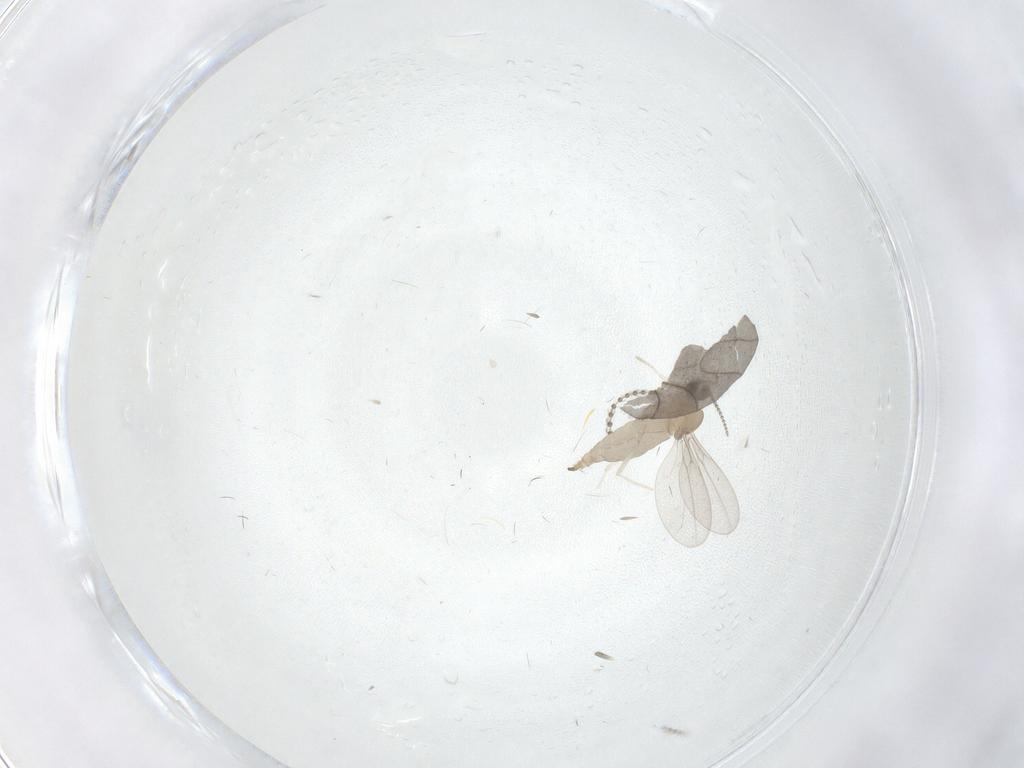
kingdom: Animalia
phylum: Arthropoda
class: Insecta
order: Diptera
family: Psychodidae
